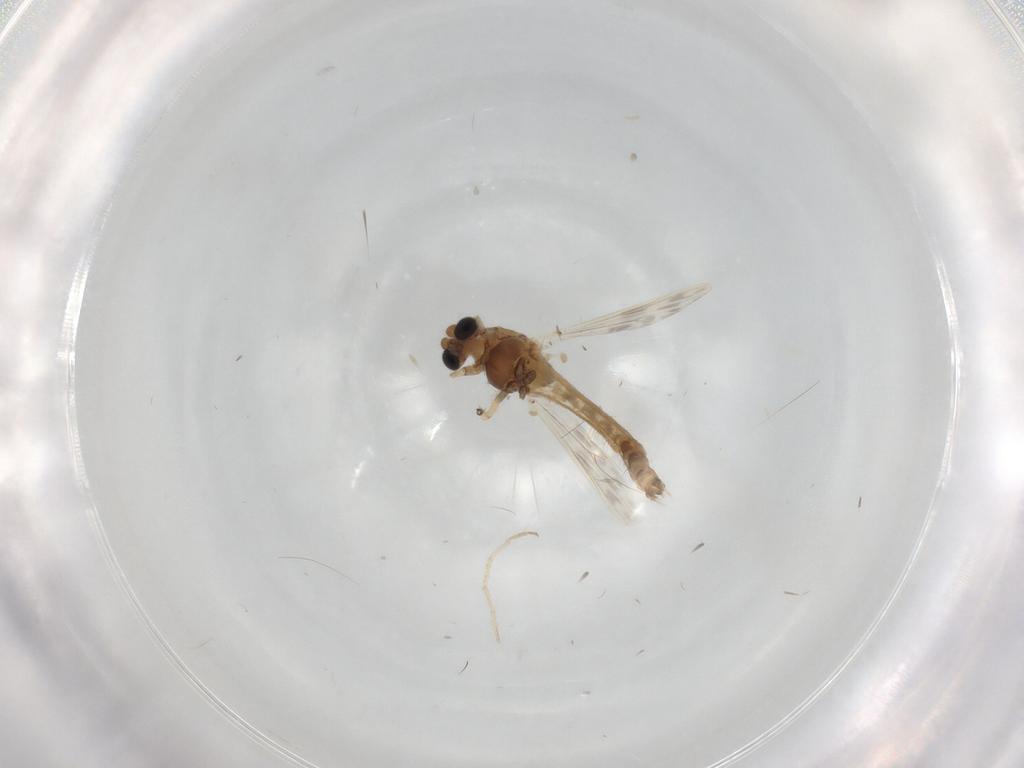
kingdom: Animalia
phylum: Arthropoda
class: Insecta
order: Diptera
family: Chironomidae
